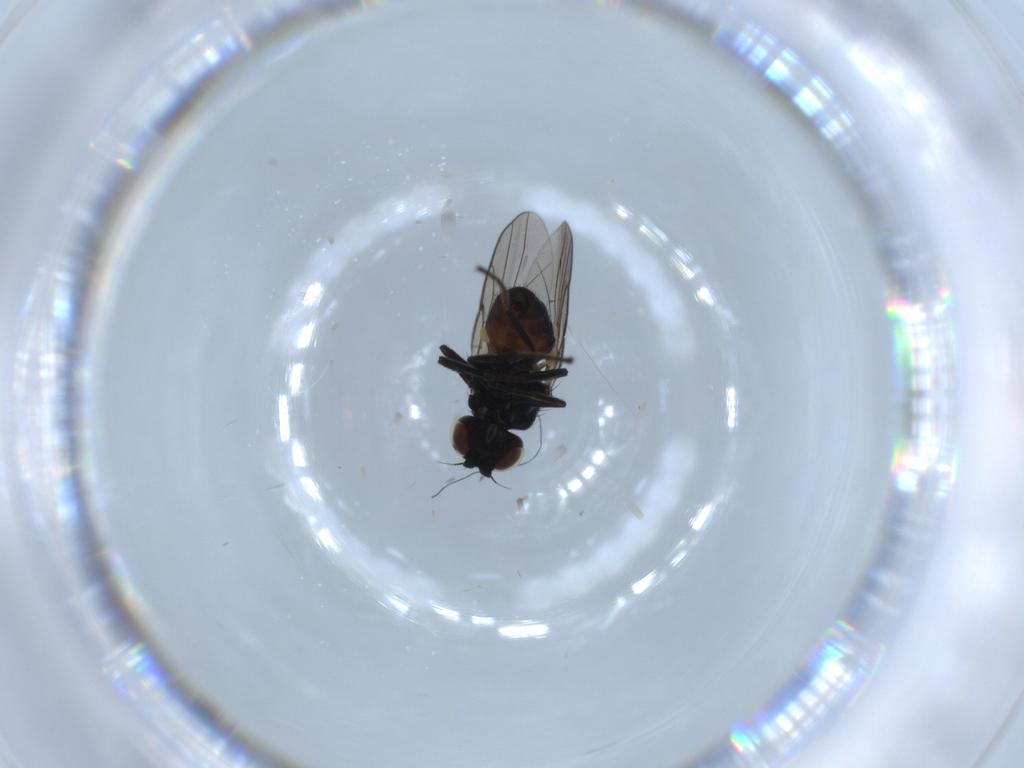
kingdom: Animalia
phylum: Arthropoda
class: Insecta
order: Diptera
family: Chloropidae
